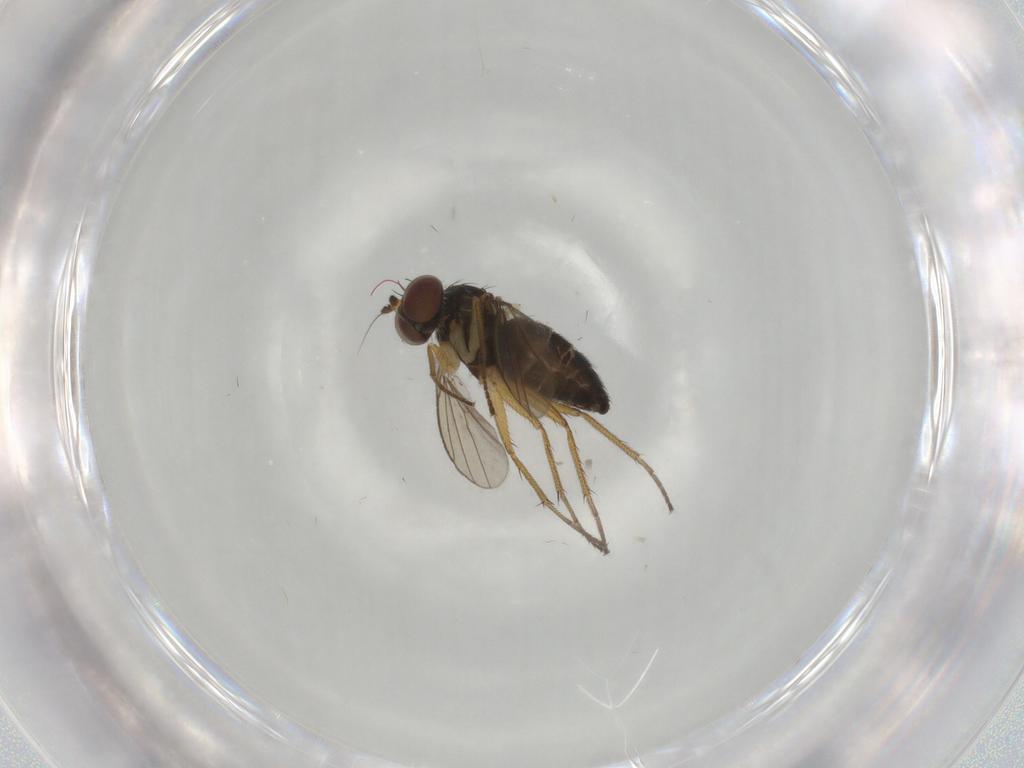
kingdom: Animalia
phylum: Arthropoda
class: Insecta
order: Diptera
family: Dolichopodidae
